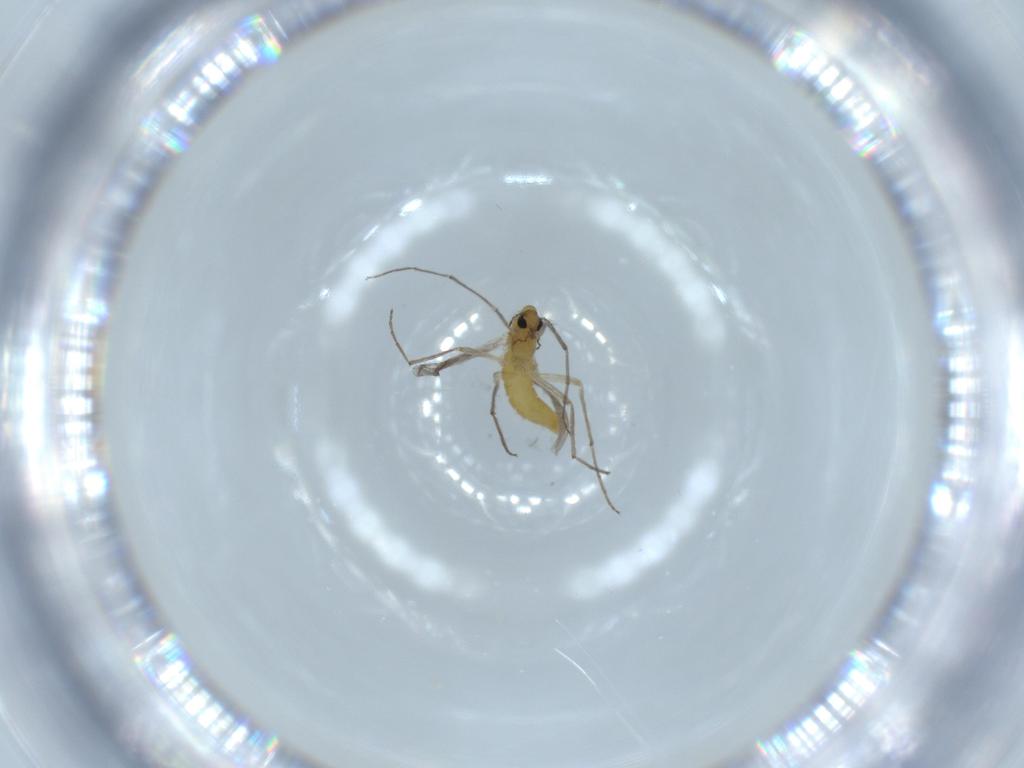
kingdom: Animalia
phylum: Arthropoda
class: Insecta
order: Diptera
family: Chironomidae
